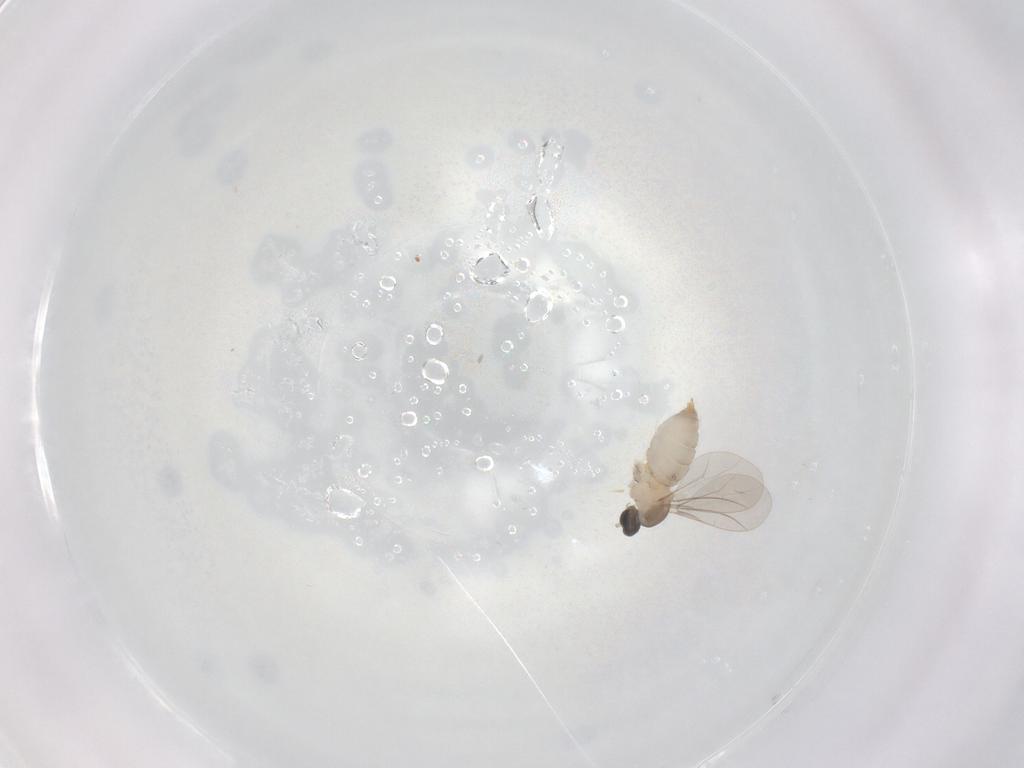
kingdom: Animalia
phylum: Arthropoda
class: Insecta
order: Diptera
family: Cecidomyiidae
